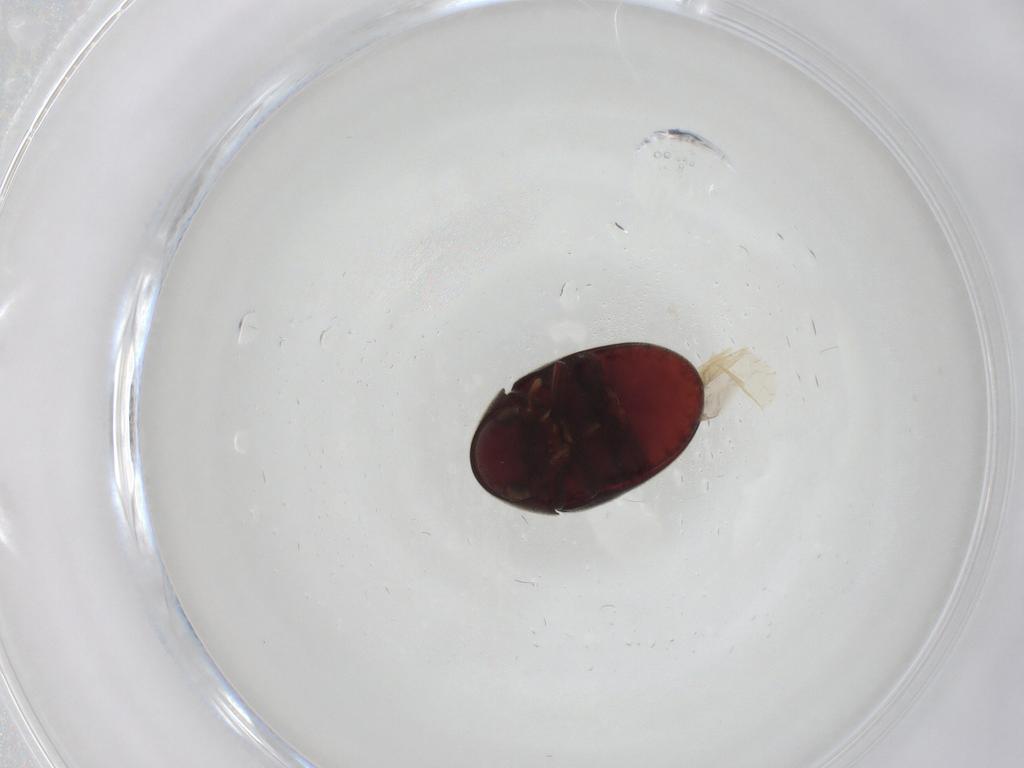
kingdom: Animalia
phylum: Arthropoda
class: Insecta
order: Coleoptera
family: Ptinidae
